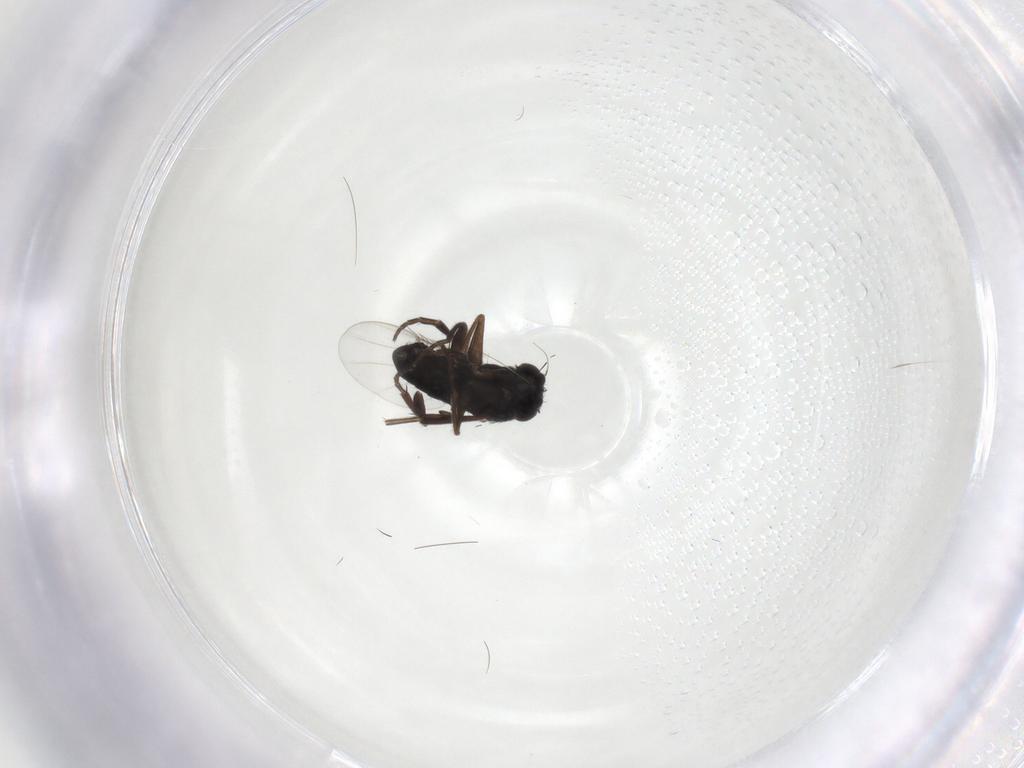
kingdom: Animalia
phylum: Arthropoda
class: Insecta
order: Diptera
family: Phoridae
